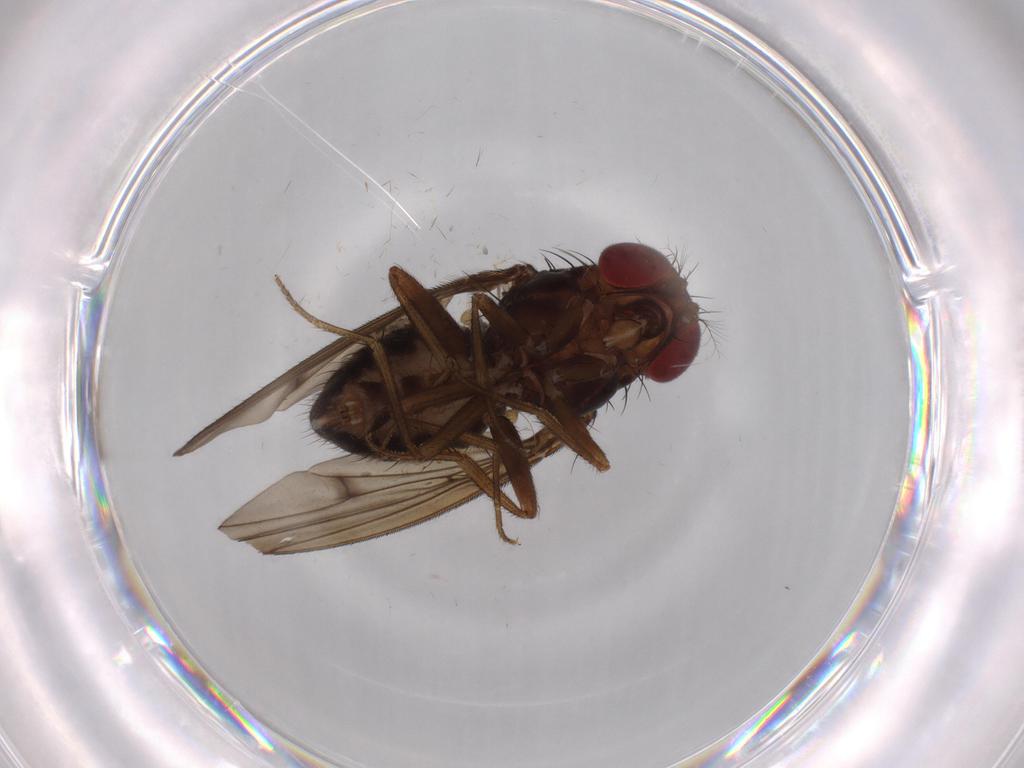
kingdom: Animalia
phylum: Arthropoda
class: Insecta
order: Diptera
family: Drosophilidae
